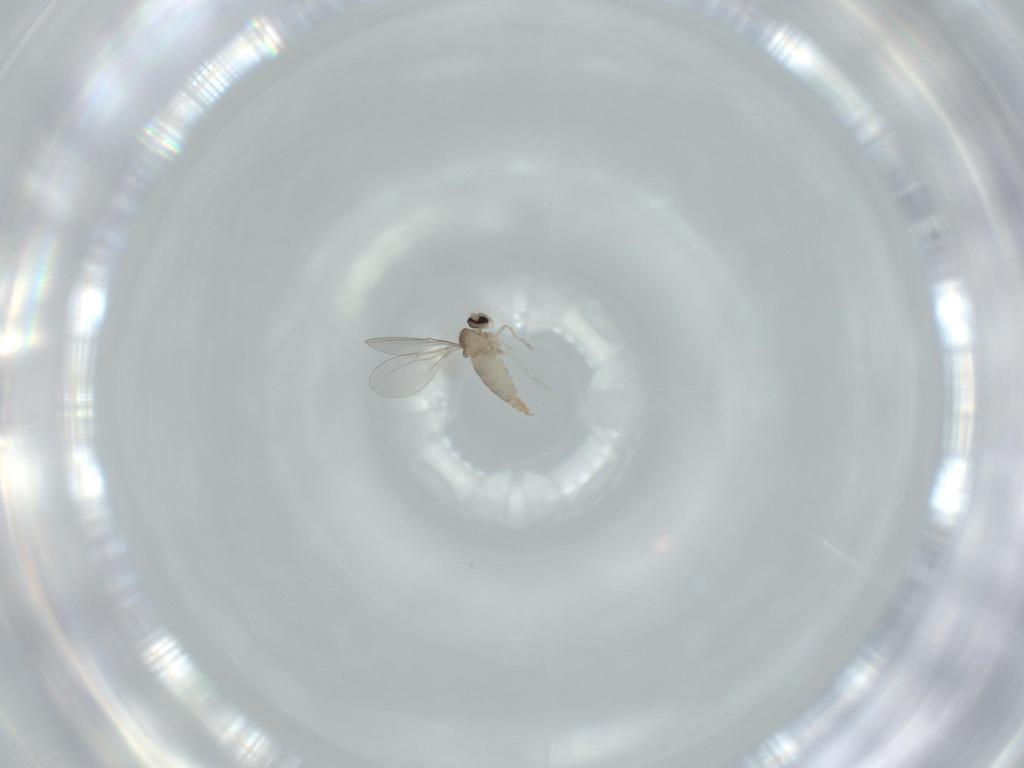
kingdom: Animalia
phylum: Arthropoda
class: Insecta
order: Diptera
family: Cecidomyiidae
